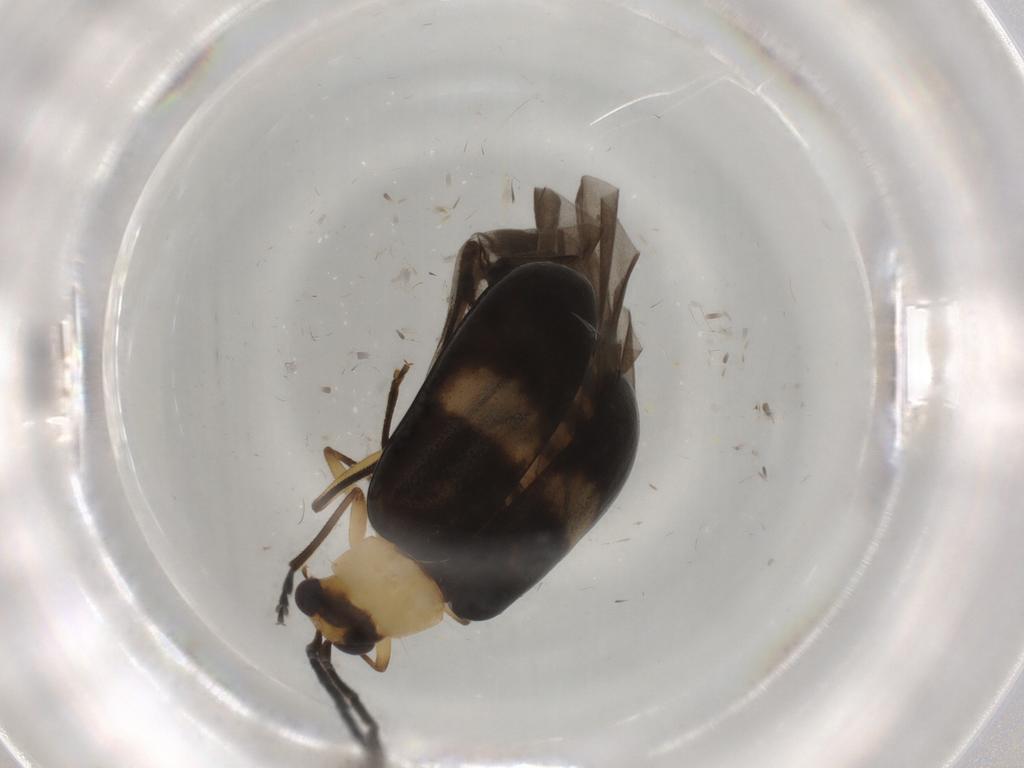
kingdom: Animalia
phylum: Arthropoda
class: Insecta
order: Coleoptera
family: Chrysomelidae
